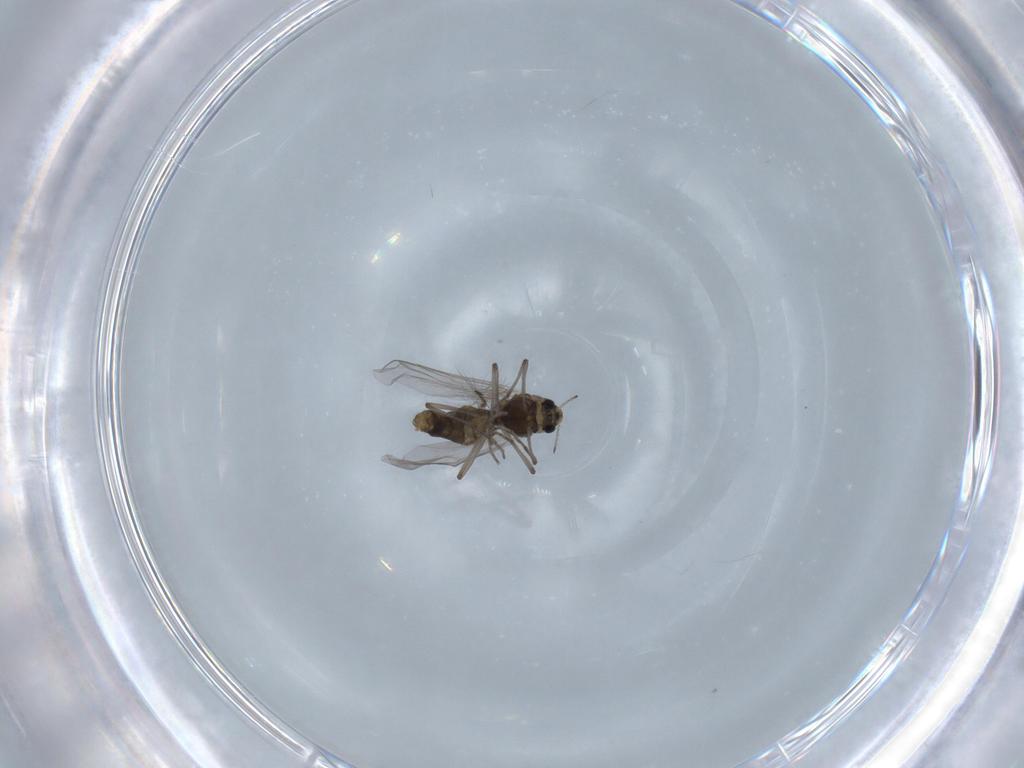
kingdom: Animalia
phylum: Arthropoda
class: Insecta
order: Diptera
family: Chironomidae
